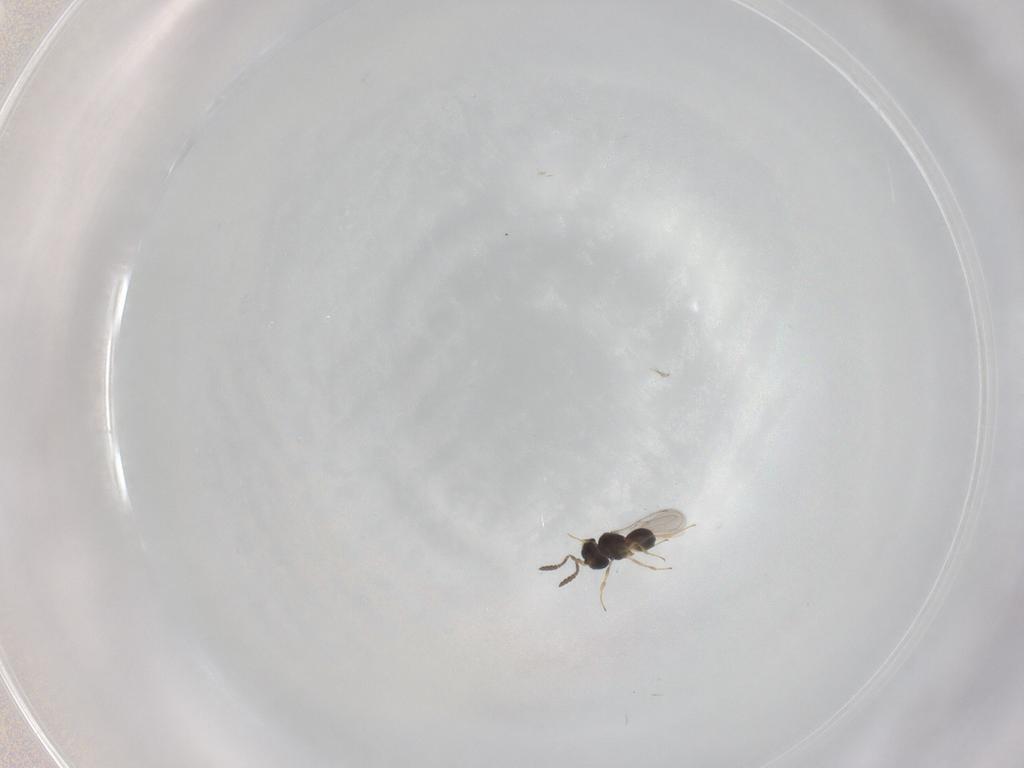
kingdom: Animalia
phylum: Arthropoda
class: Insecta
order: Hymenoptera
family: Scelionidae
